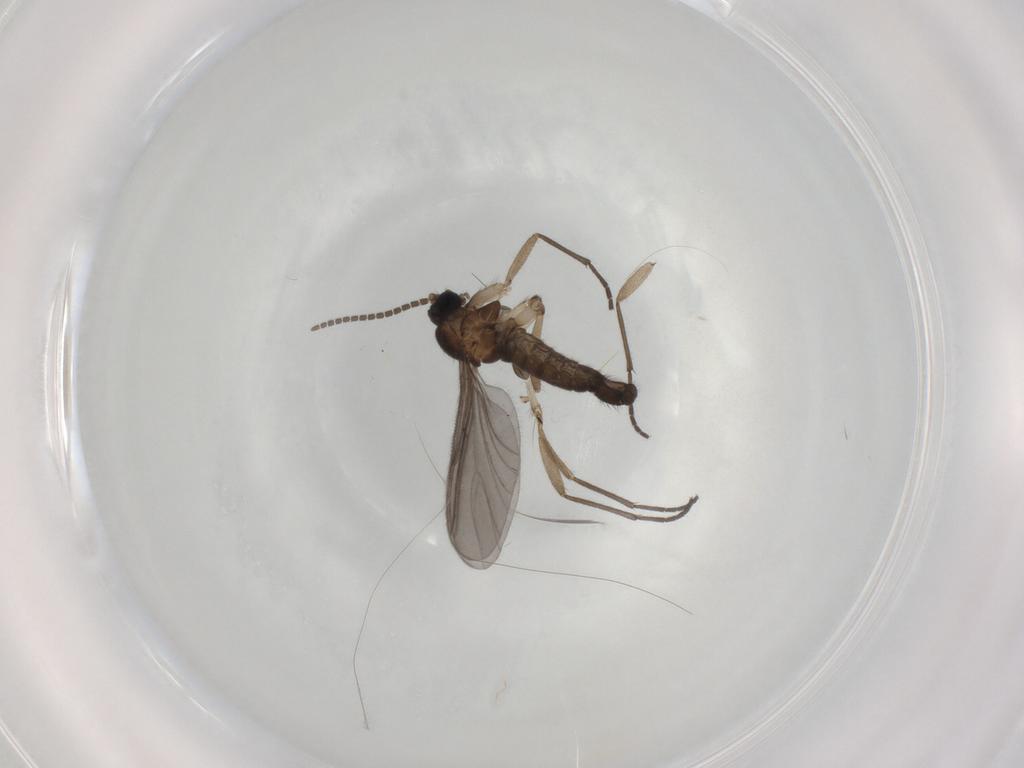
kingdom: Animalia
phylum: Arthropoda
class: Insecta
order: Diptera
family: Sciaridae
